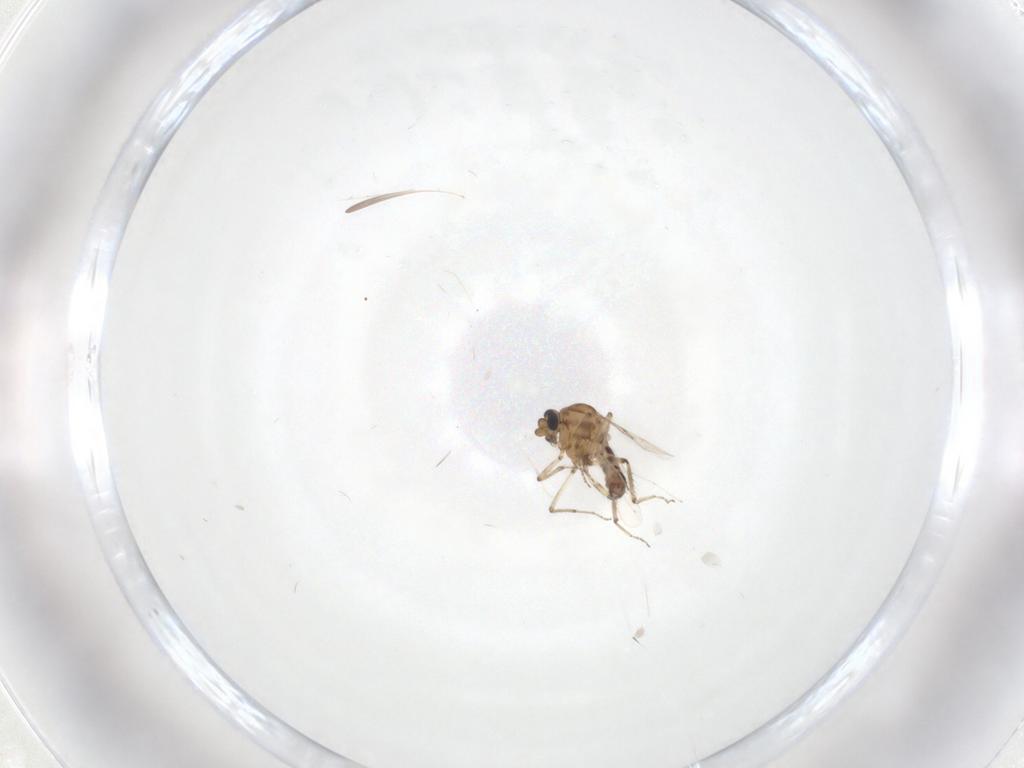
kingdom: Animalia
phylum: Arthropoda
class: Insecta
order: Diptera
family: Ceratopogonidae
